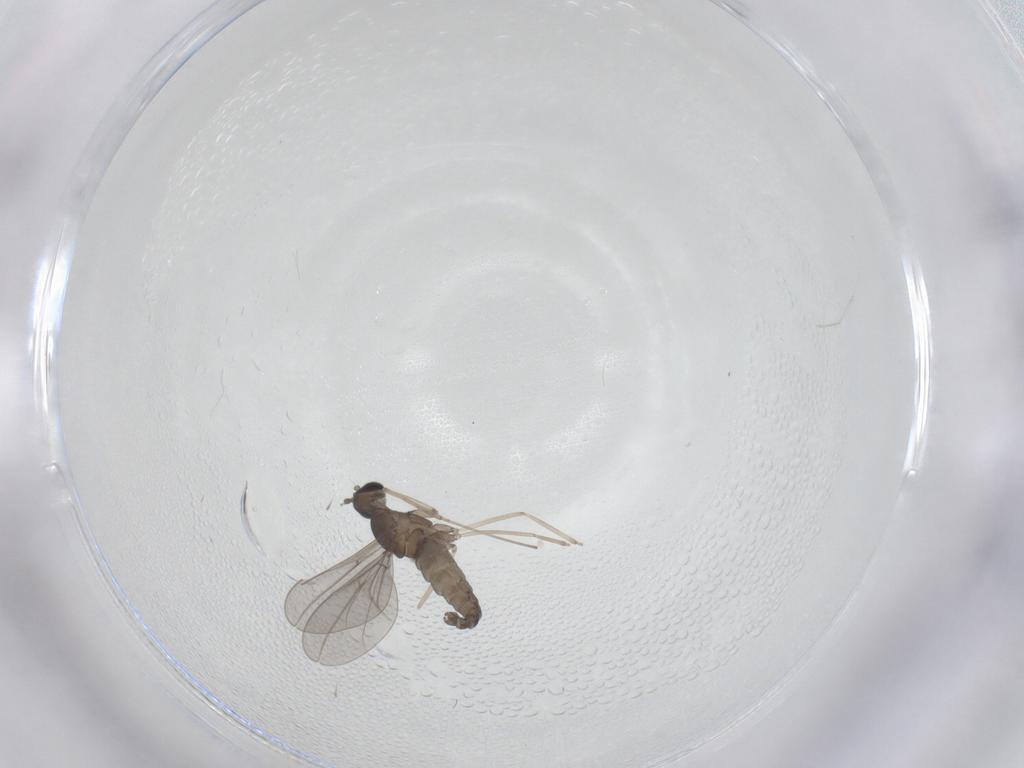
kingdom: Animalia
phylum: Arthropoda
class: Insecta
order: Diptera
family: Cecidomyiidae
